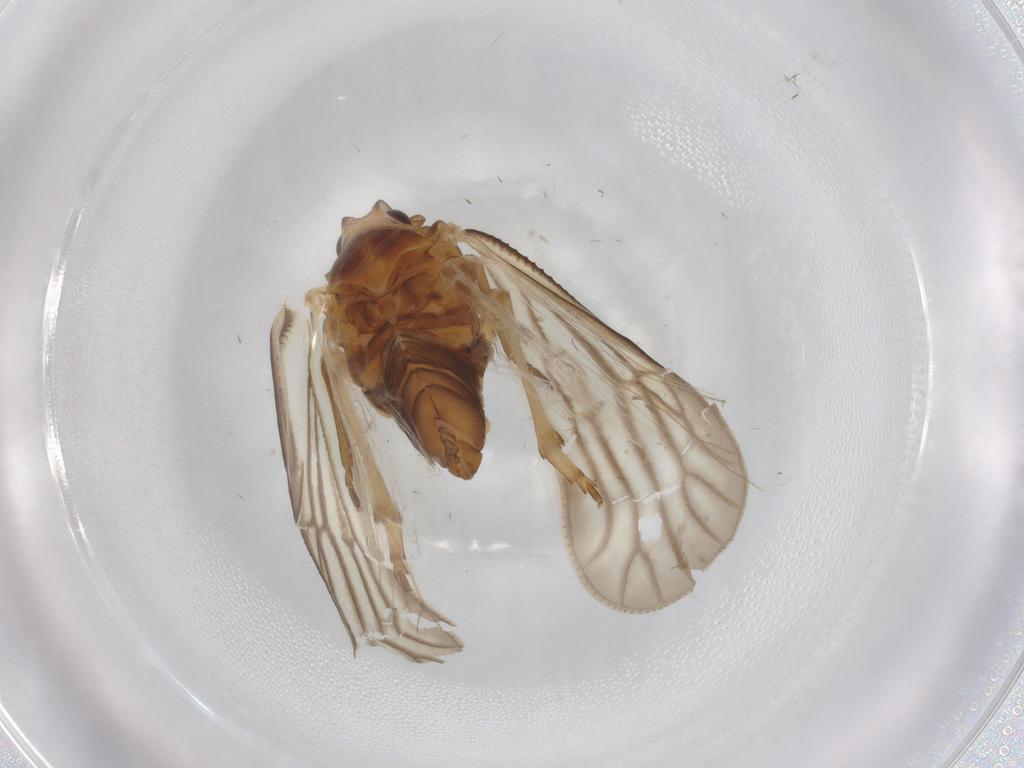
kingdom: Animalia
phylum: Arthropoda
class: Insecta
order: Hemiptera
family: Meenoplidae
